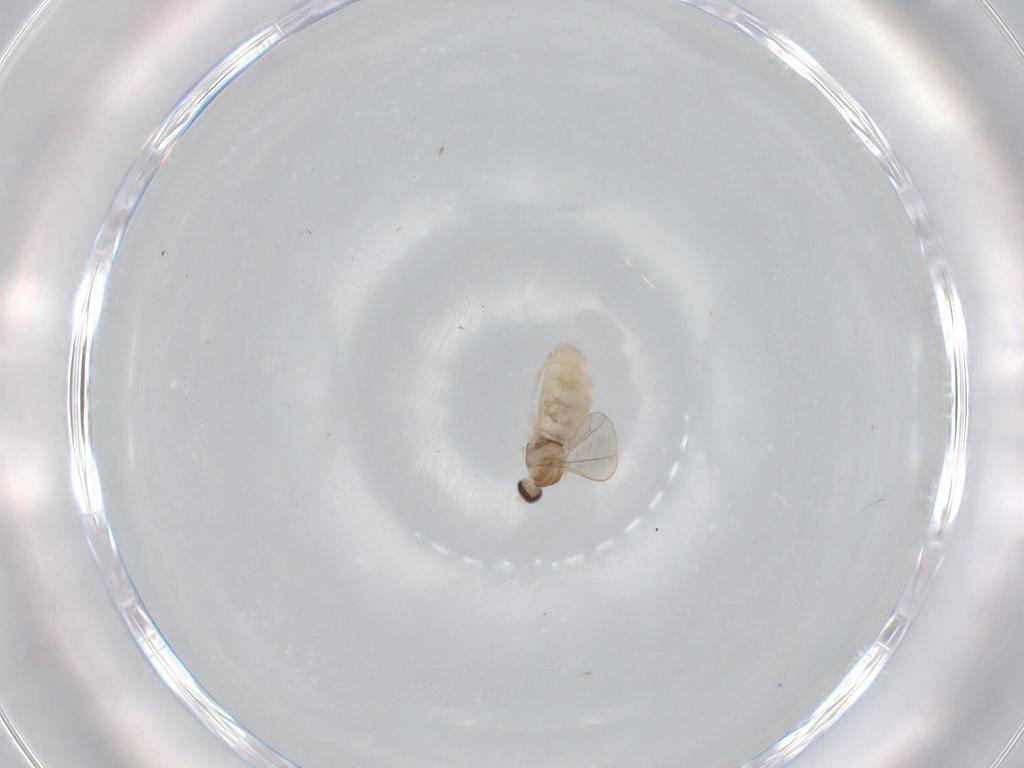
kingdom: Animalia
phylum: Arthropoda
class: Insecta
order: Diptera
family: Cecidomyiidae
